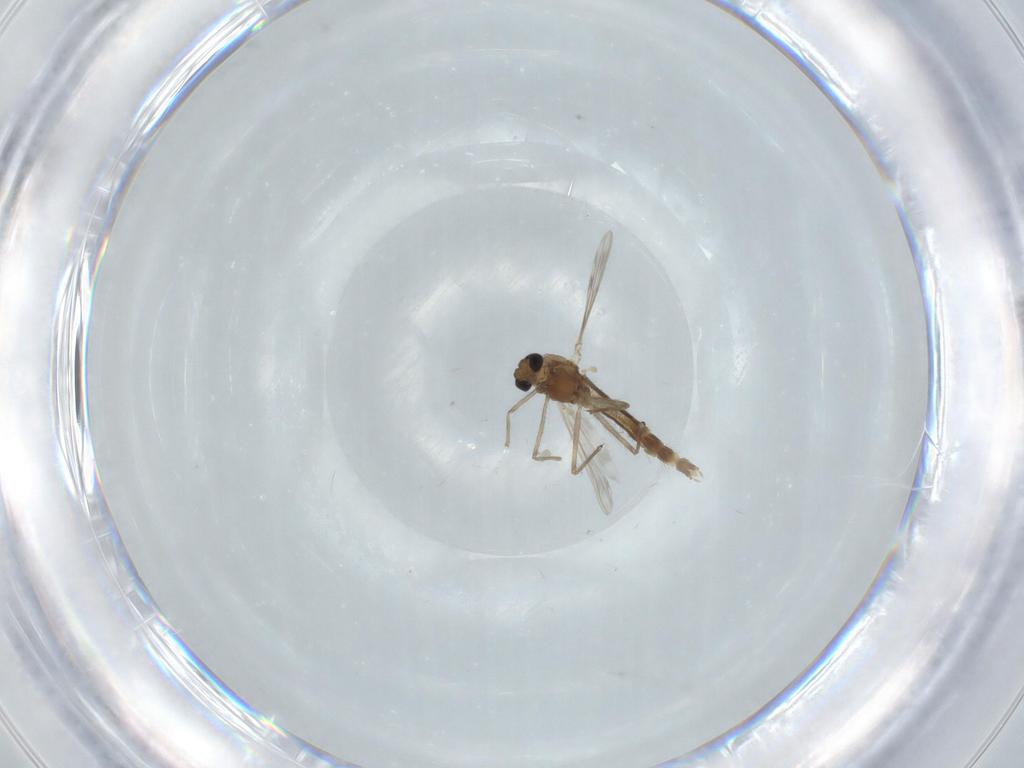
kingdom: Animalia
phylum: Arthropoda
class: Insecta
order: Diptera
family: Chironomidae
